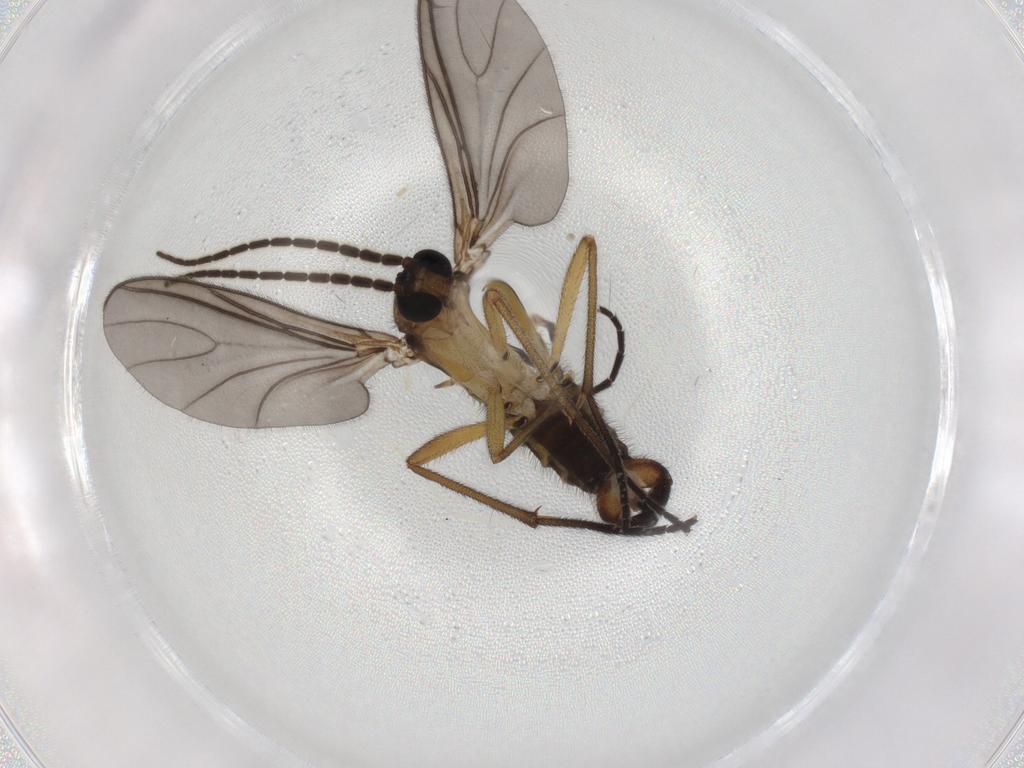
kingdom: Animalia
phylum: Arthropoda
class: Insecta
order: Diptera
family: Sciaridae
